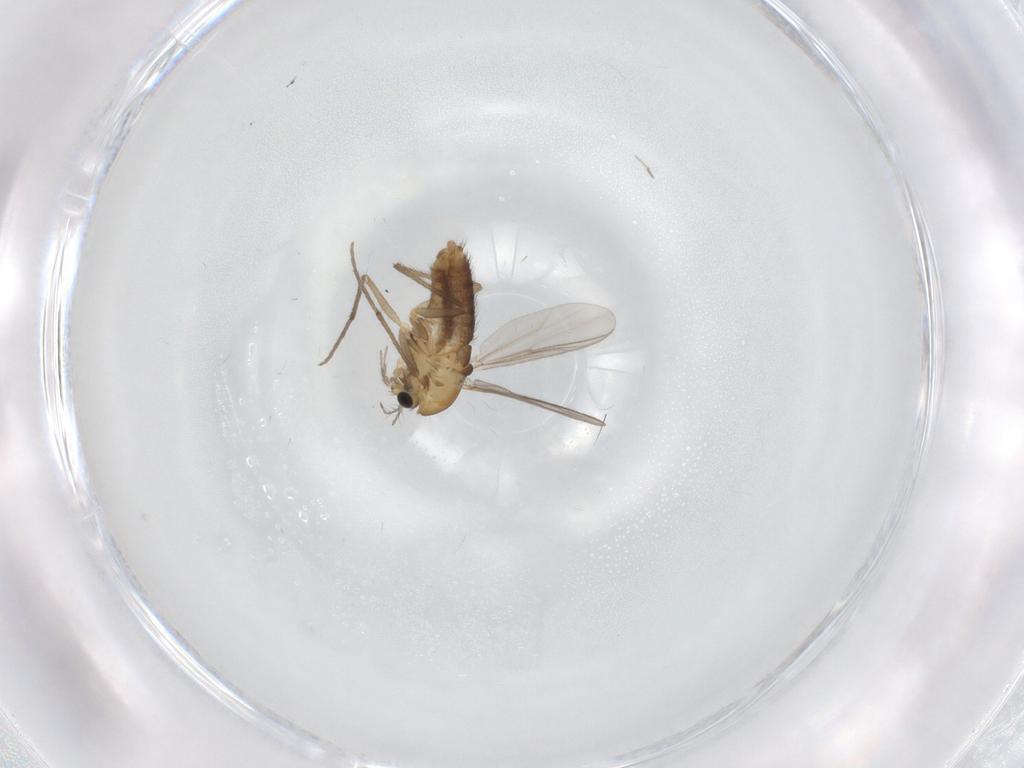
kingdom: Animalia
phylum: Arthropoda
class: Insecta
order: Diptera
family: Chironomidae
